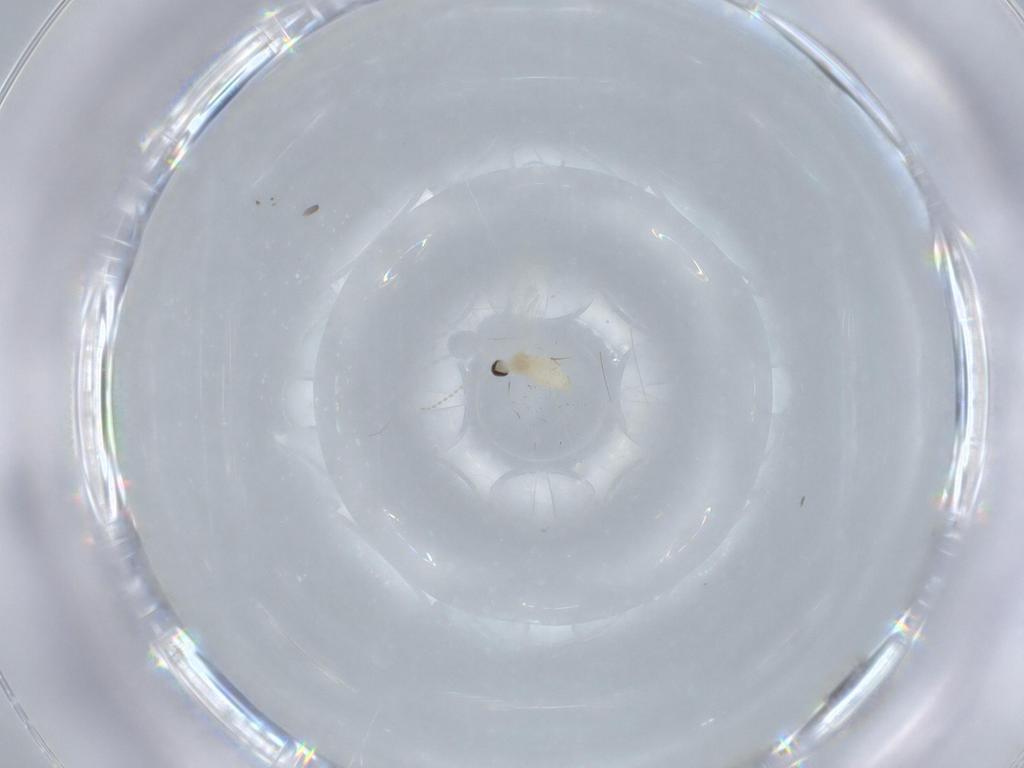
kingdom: Animalia
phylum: Arthropoda
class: Insecta
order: Diptera
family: Cecidomyiidae
